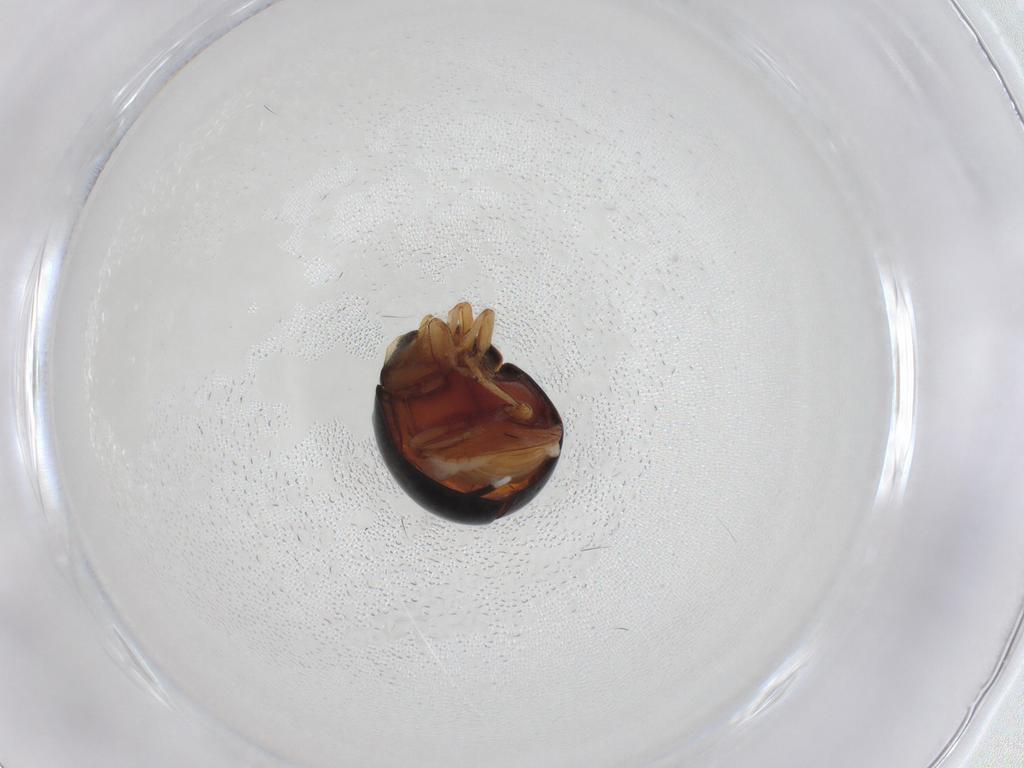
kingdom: Animalia
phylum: Arthropoda
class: Insecta
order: Coleoptera
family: Coccinellidae
